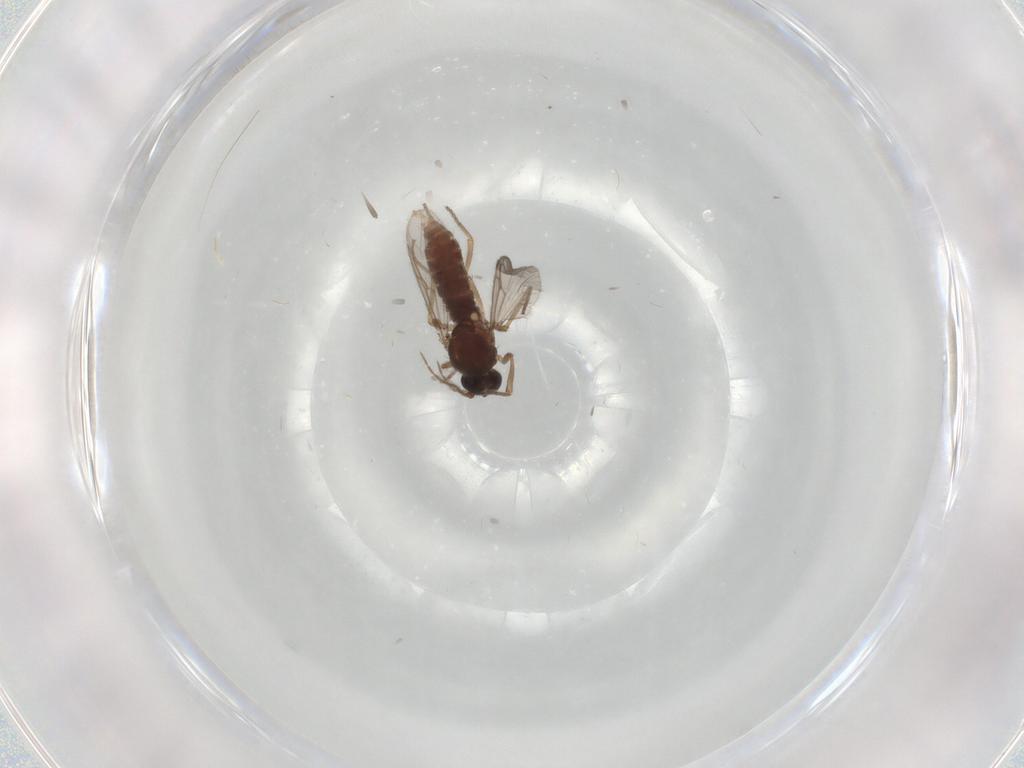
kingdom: Animalia
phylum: Arthropoda
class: Insecta
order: Diptera
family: Ceratopogonidae
